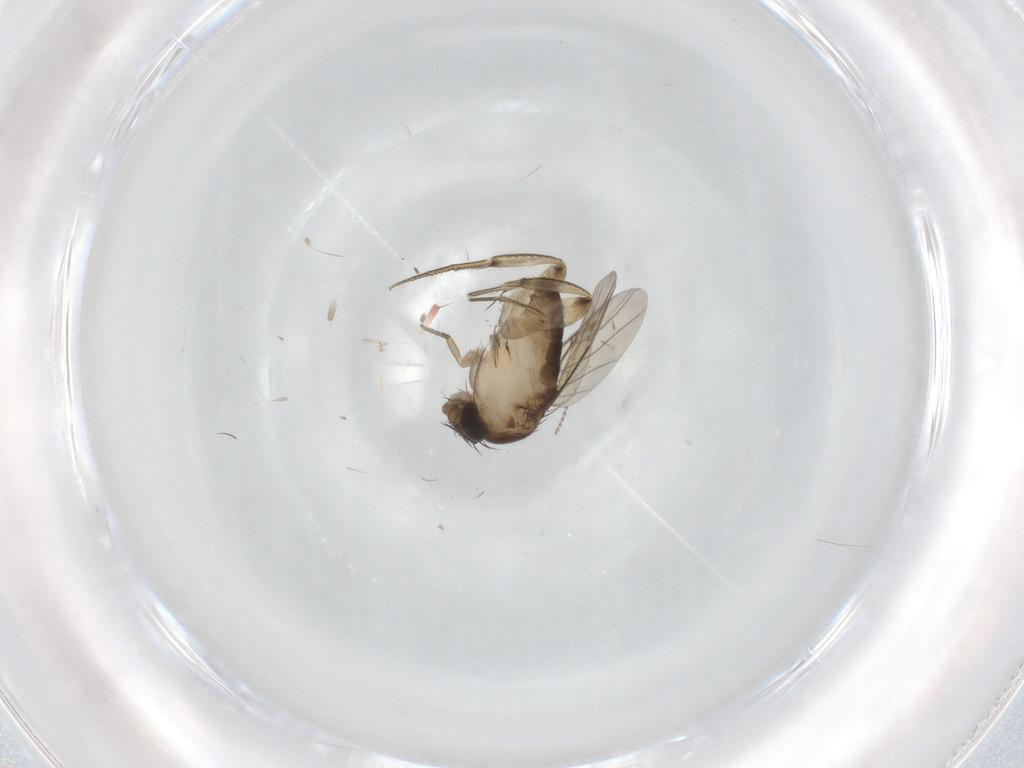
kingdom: Animalia
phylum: Arthropoda
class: Insecta
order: Diptera
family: Phoridae
